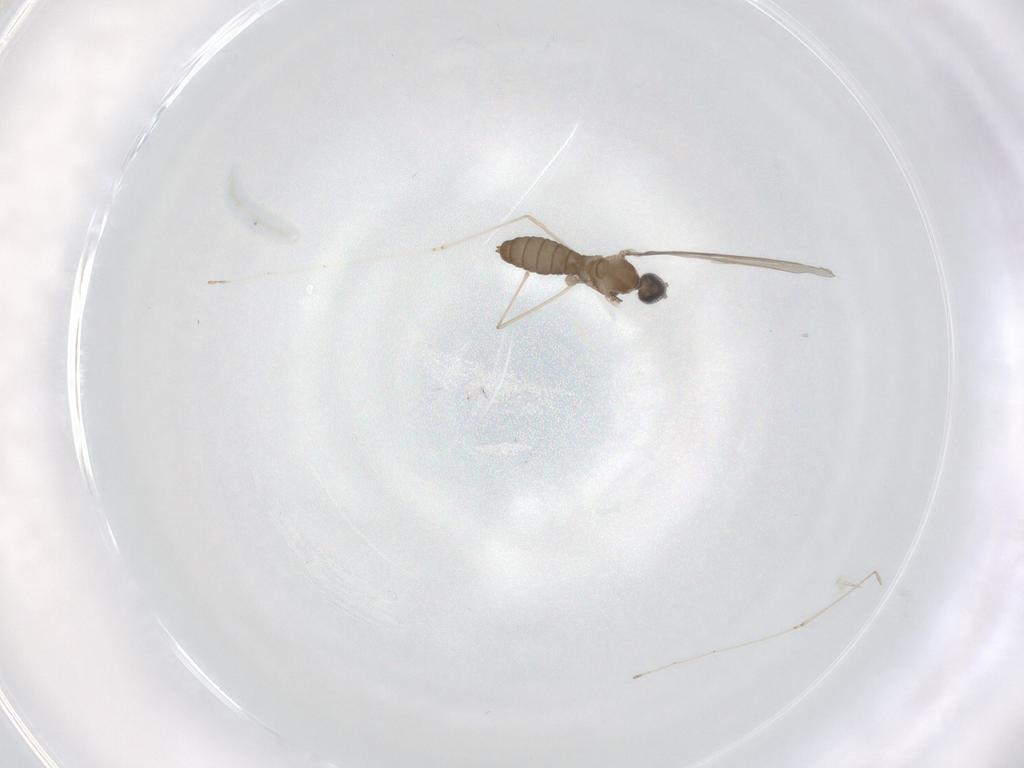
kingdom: Animalia
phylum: Arthropoda
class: Insecta
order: Diptera
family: Cecidomyiidae
